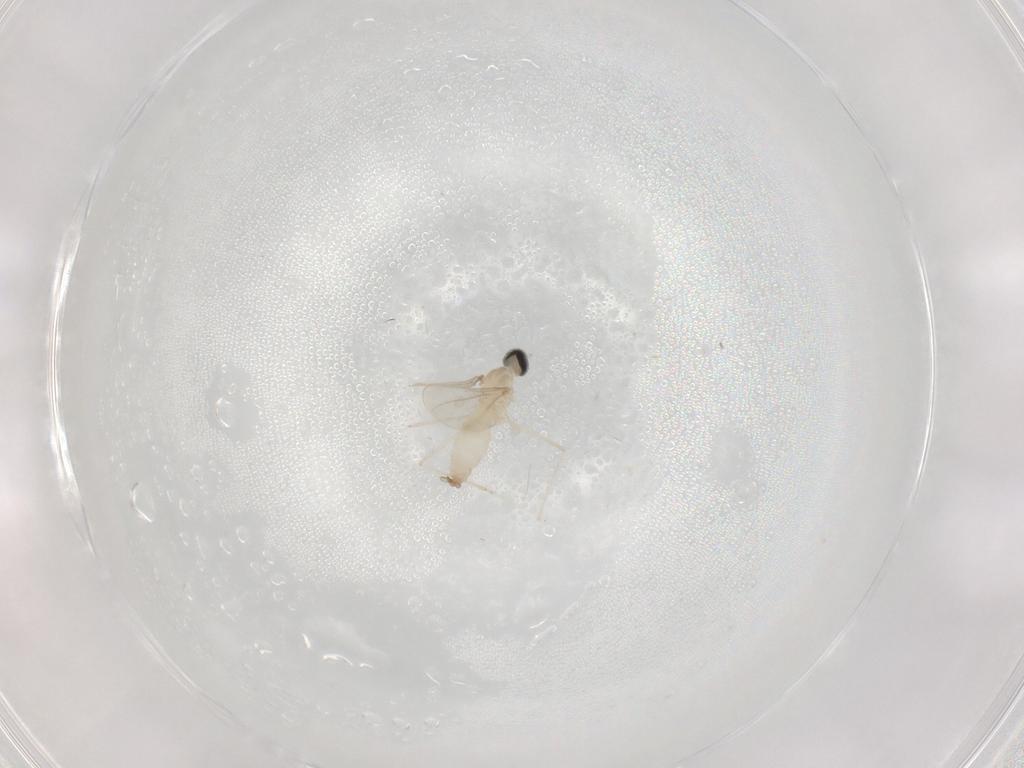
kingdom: Animalia
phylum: Arthropoda
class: Insecta
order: Diptera
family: Cecidomyiidae
